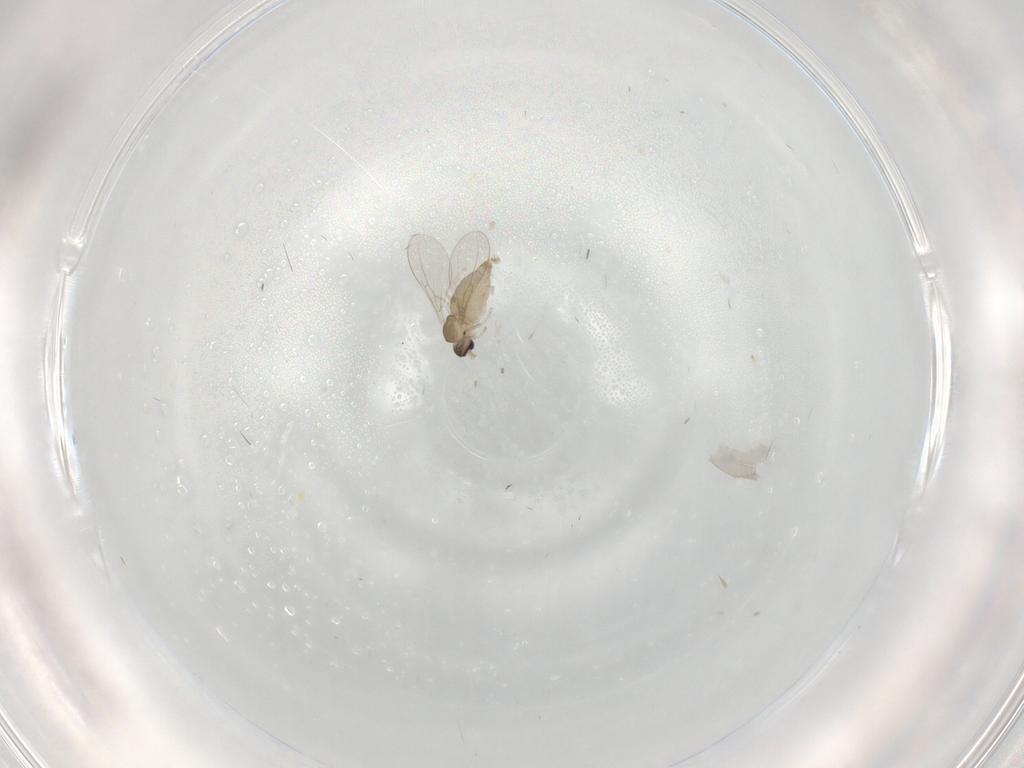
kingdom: Animalia
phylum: Arthropoda
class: Insecta
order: Diptera
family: Cecidomyiidae
